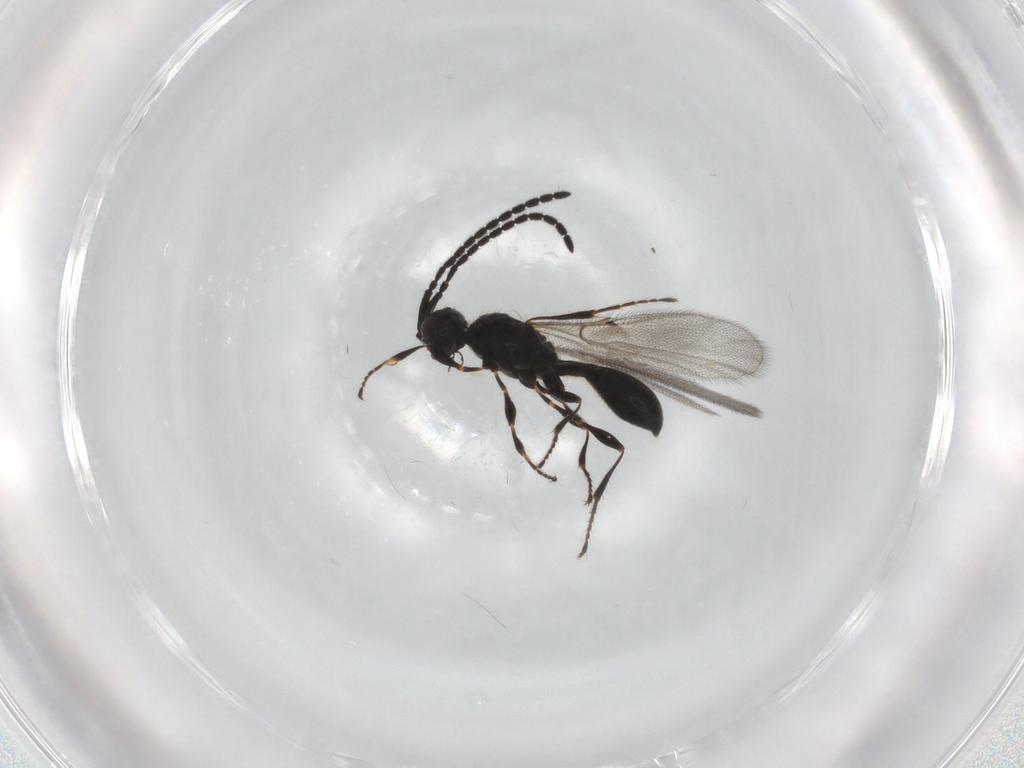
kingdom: Animalia
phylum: Arthropoda
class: Insecta
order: Hymenoptera
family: Diapriidae
